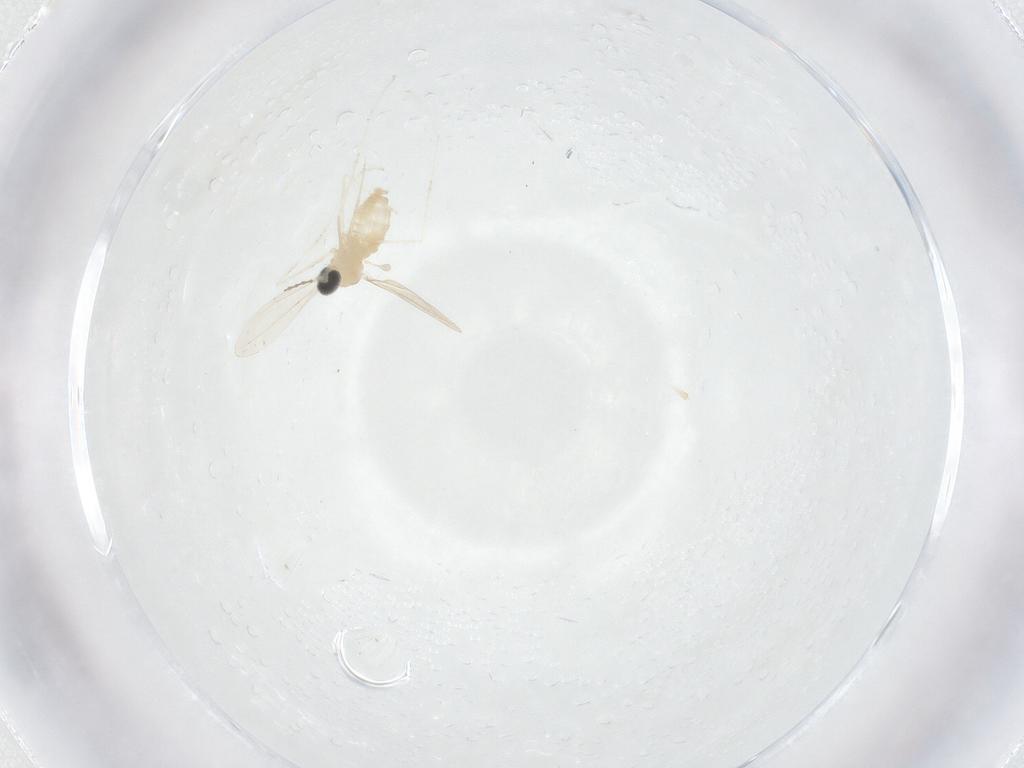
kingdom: Animalia
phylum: Arthropoda
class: Insecta
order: Diptera
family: Cecidomyiidae
